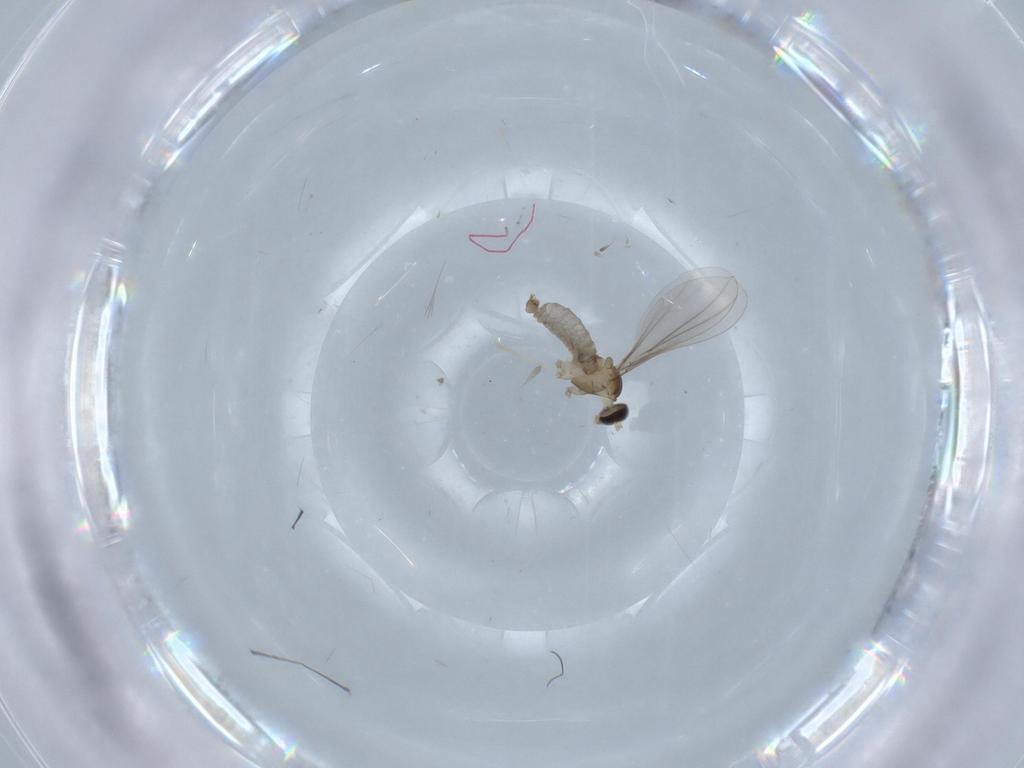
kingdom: Animalia
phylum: Arthropoda
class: Insecta
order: Diptera
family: Cecidomyiidae
